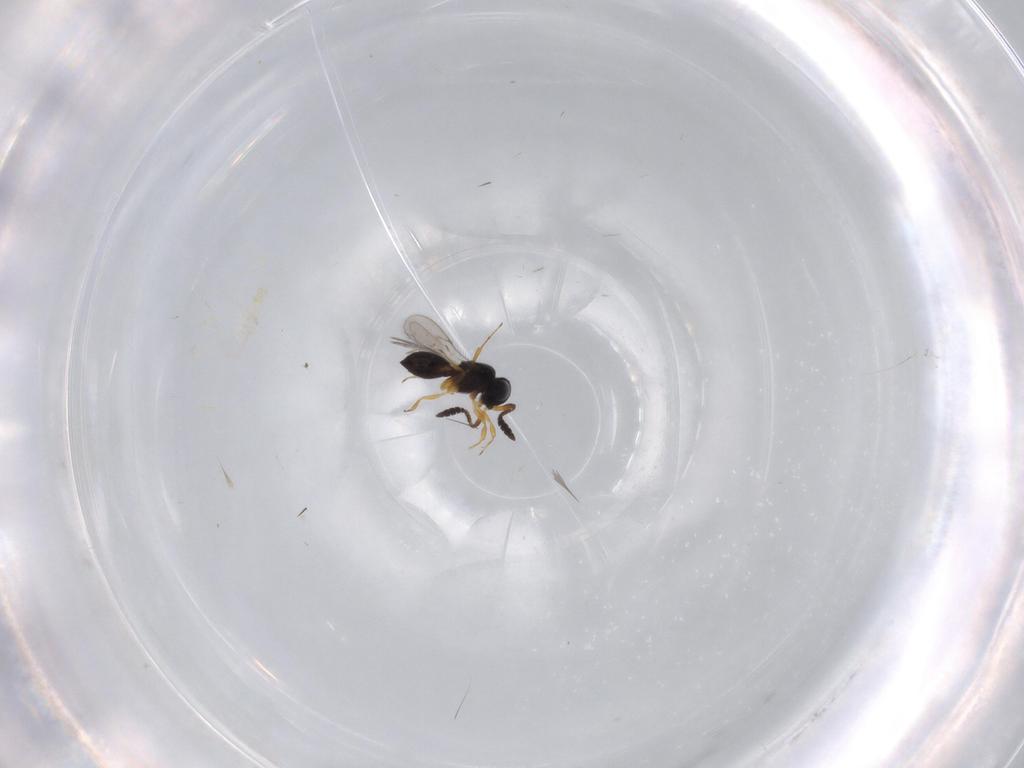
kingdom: Animalia
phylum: Arthropoda
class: Insecta
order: Hymenoptera
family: Scelionidae
